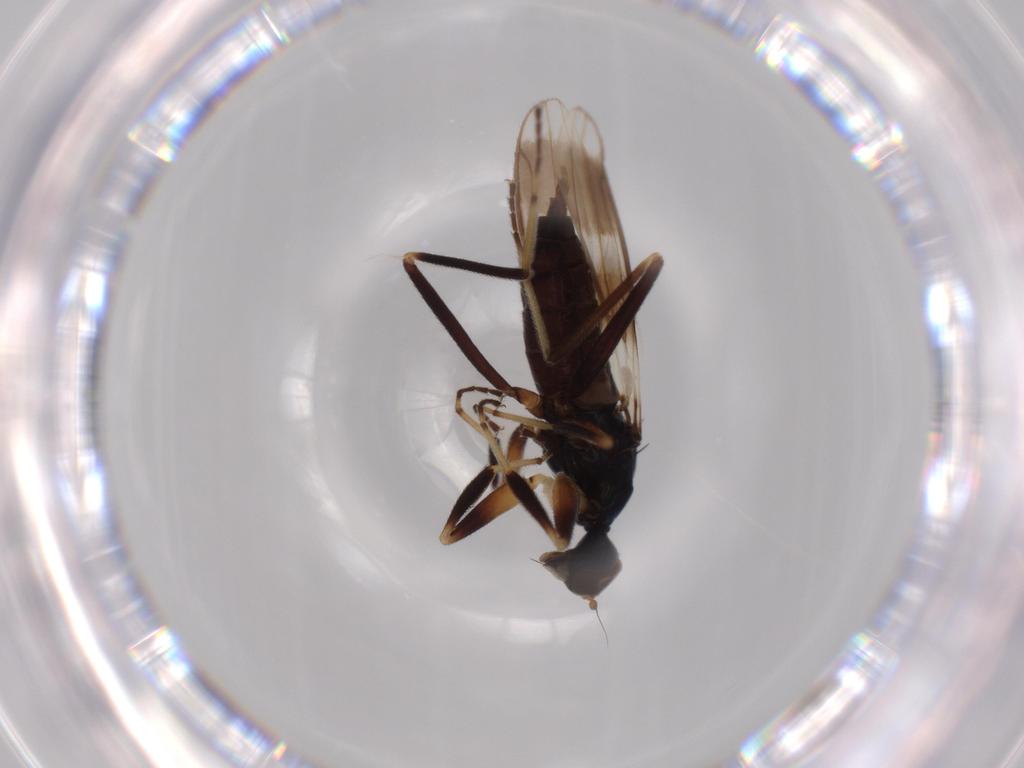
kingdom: Animalia
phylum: Arthropoda
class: Insecta
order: Diptera
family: Hybotidae
